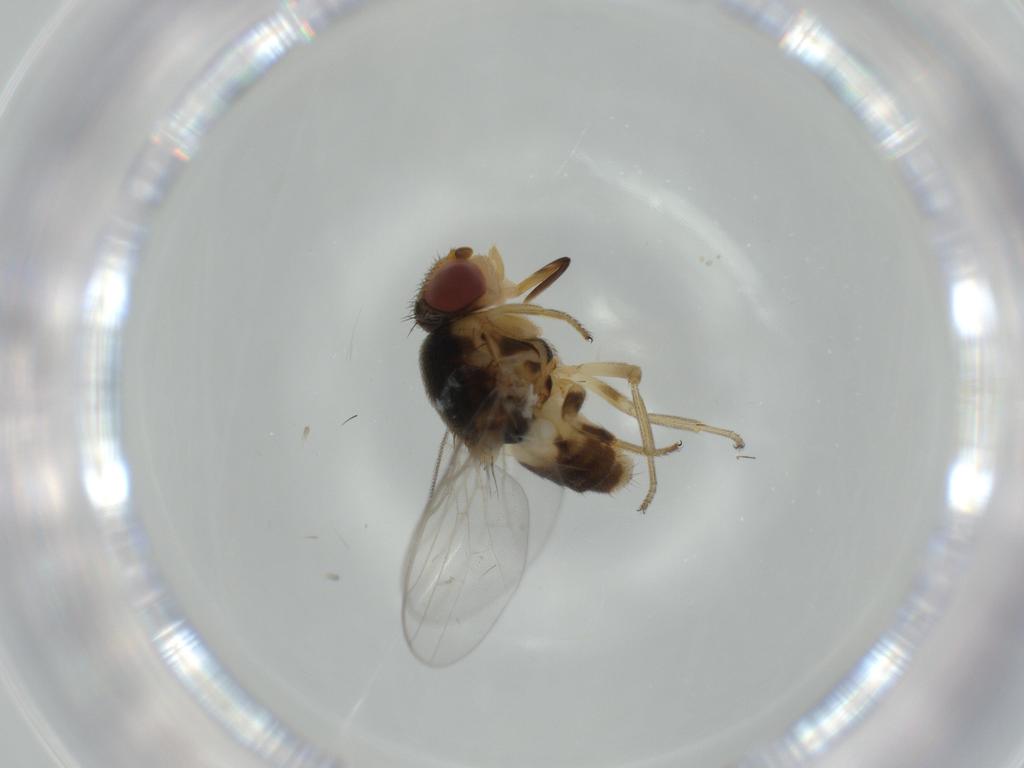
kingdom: Animalia
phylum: Arthropoda
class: Insecta
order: Diptera
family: Chloropidae
